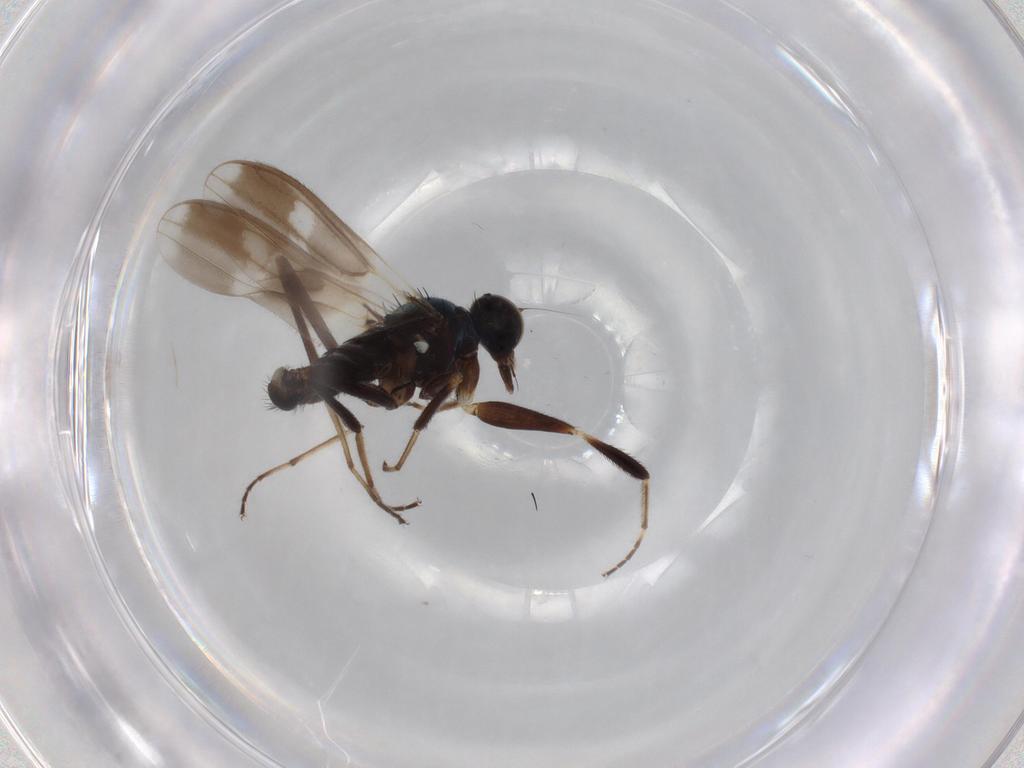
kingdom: Animalia
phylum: Arthropoda
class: Insecta
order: Diptera
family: Hybotidae
